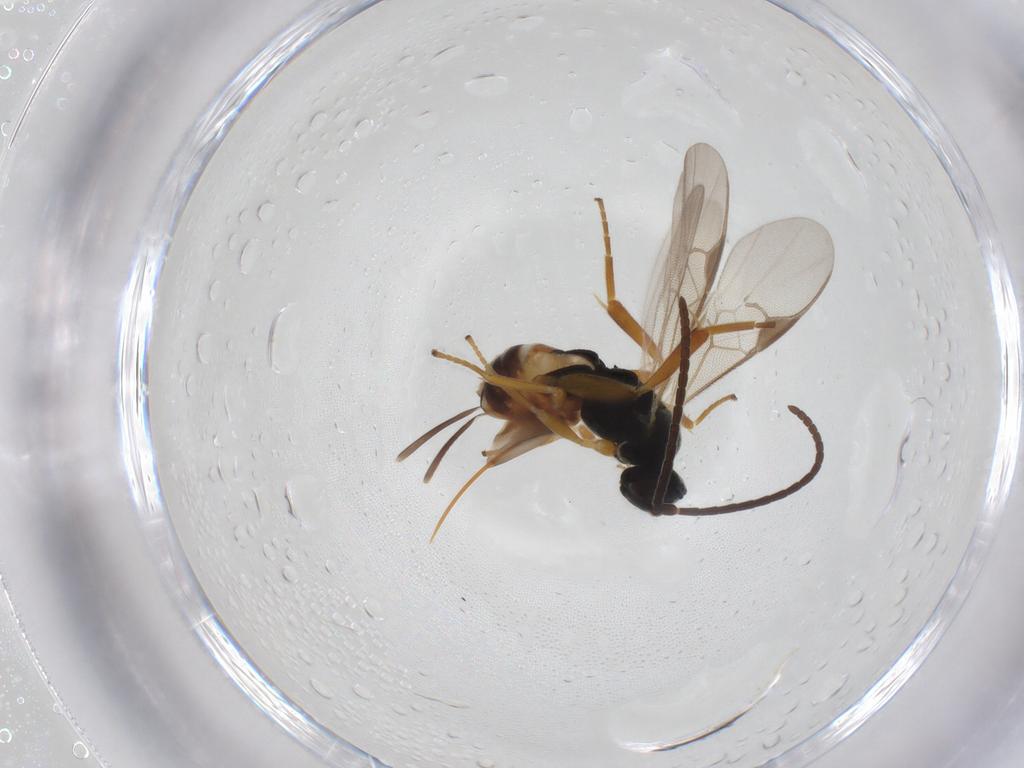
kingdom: Animalia
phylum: Arthropoda
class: Insecta
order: Hymenoptera
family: Braconidae
